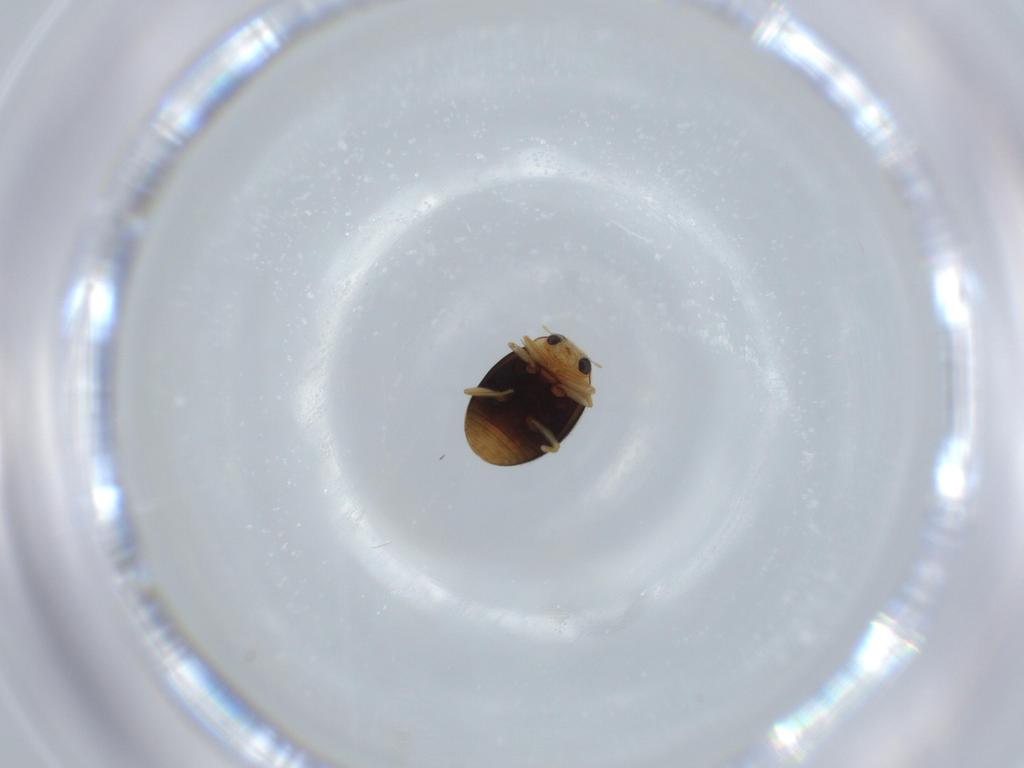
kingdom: Animalia
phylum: Arthropoda
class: Insecta
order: Coleoptera
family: Coccinellidae
